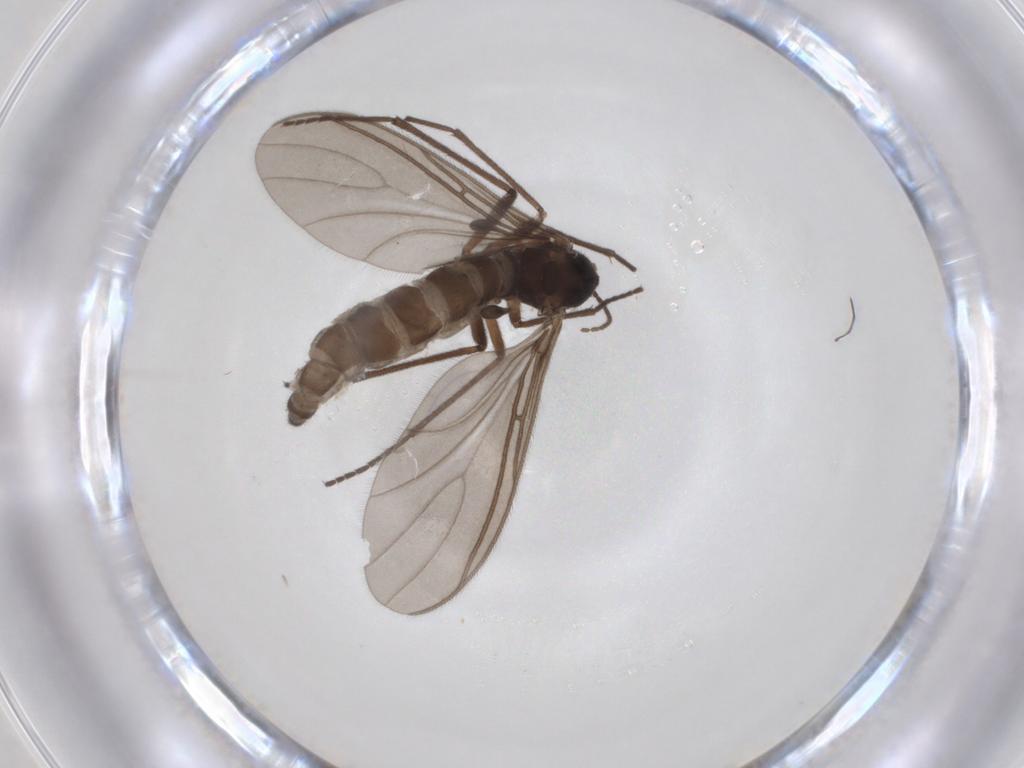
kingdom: Animalia
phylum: Arthropoda
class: Insecta
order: Diptera
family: Sciaridae
